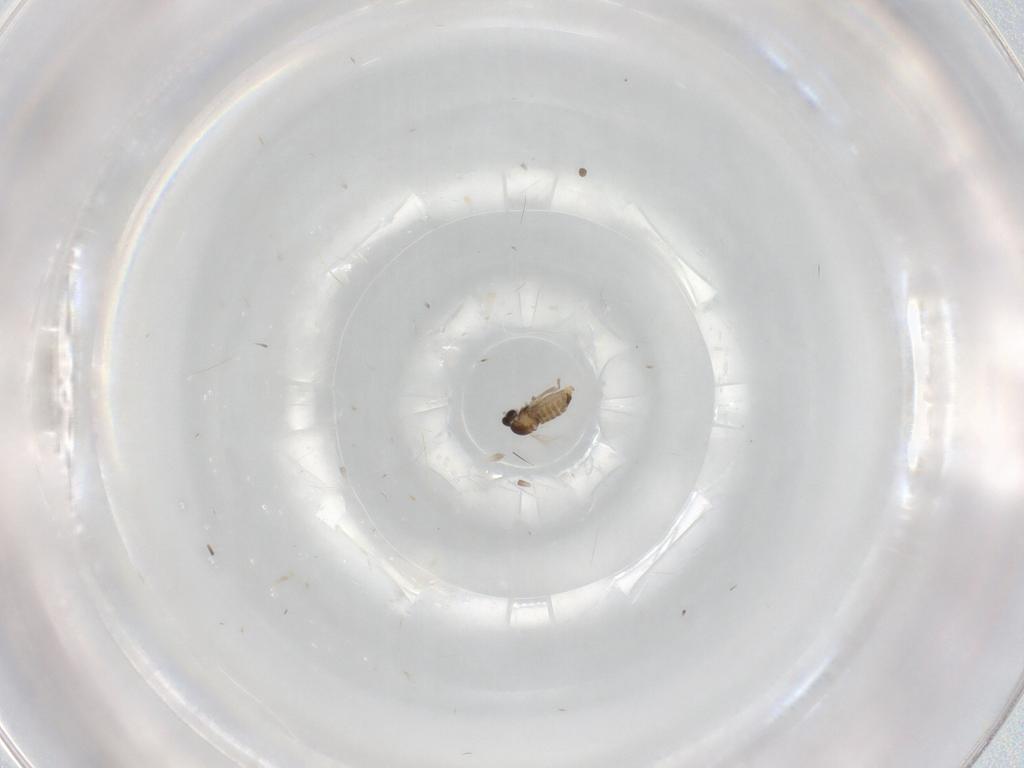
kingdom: Animalia
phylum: Arthropoda
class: Insecta
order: Diptera
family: Cecidomyiidae
